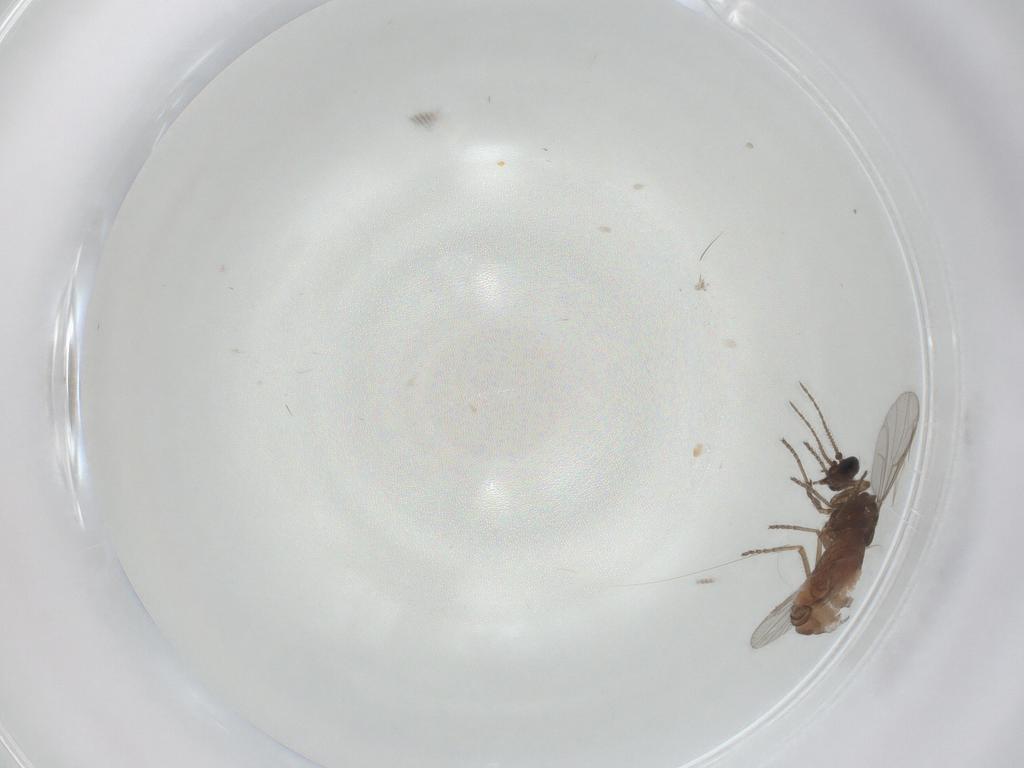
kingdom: Animalia
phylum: Arthropoda
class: Insecta
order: Diptera
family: Ceratopogonidae
